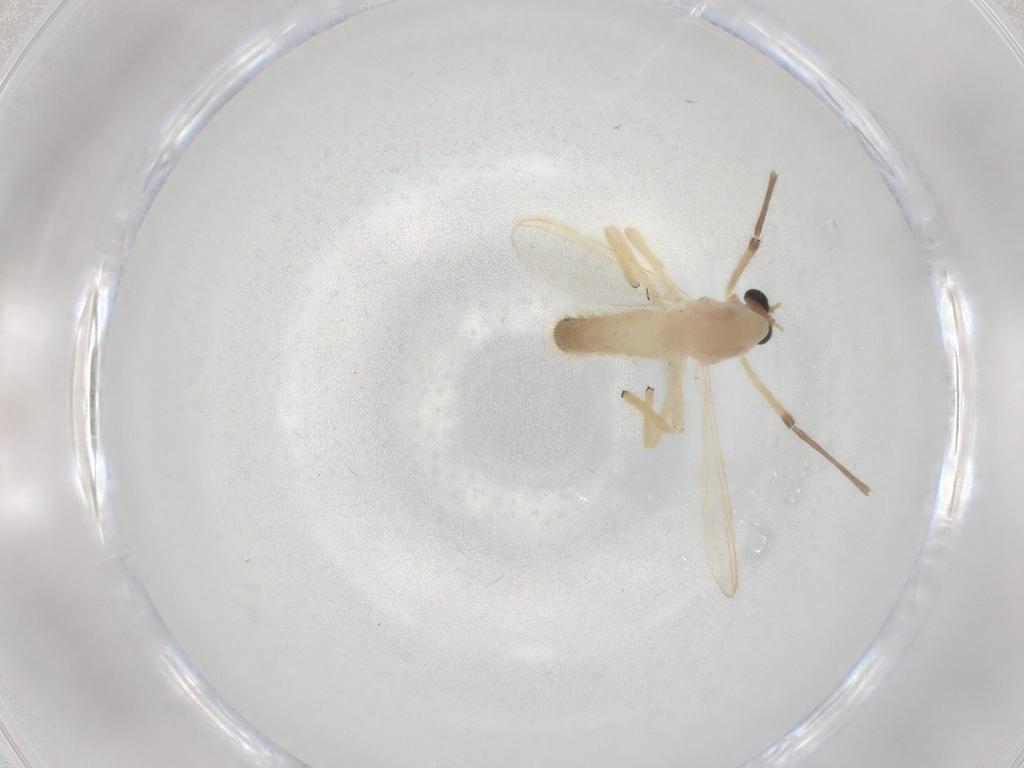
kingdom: Animalia
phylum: Arthropoda
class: Insecta
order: Diptera
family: Chironomidae
